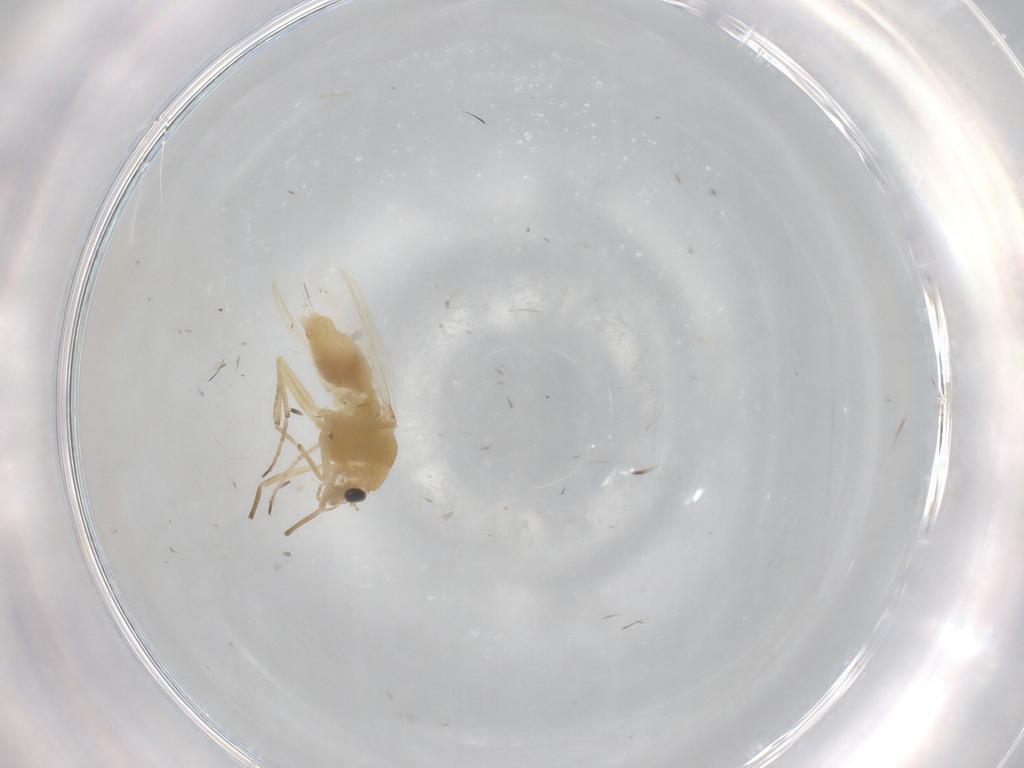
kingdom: Animalia
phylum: Arthropoda
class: Insecta
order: Diptera
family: Chironomidae
